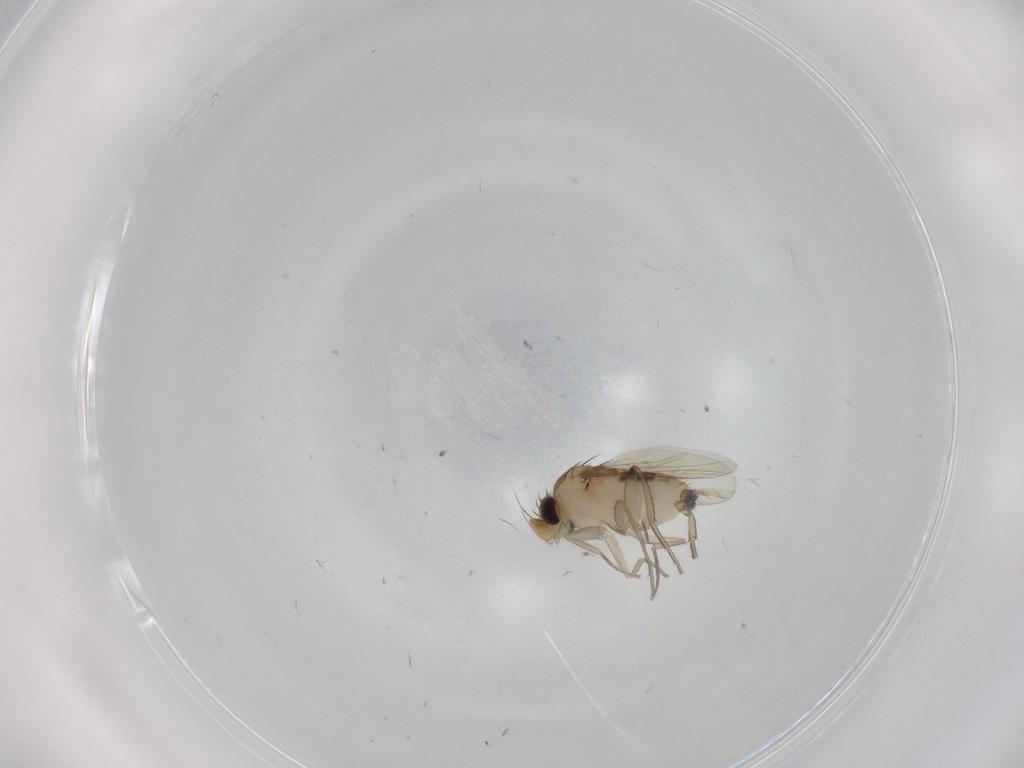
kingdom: Animalia
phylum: Arthropoda
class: Insecta
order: Diptera
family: Phoridae
